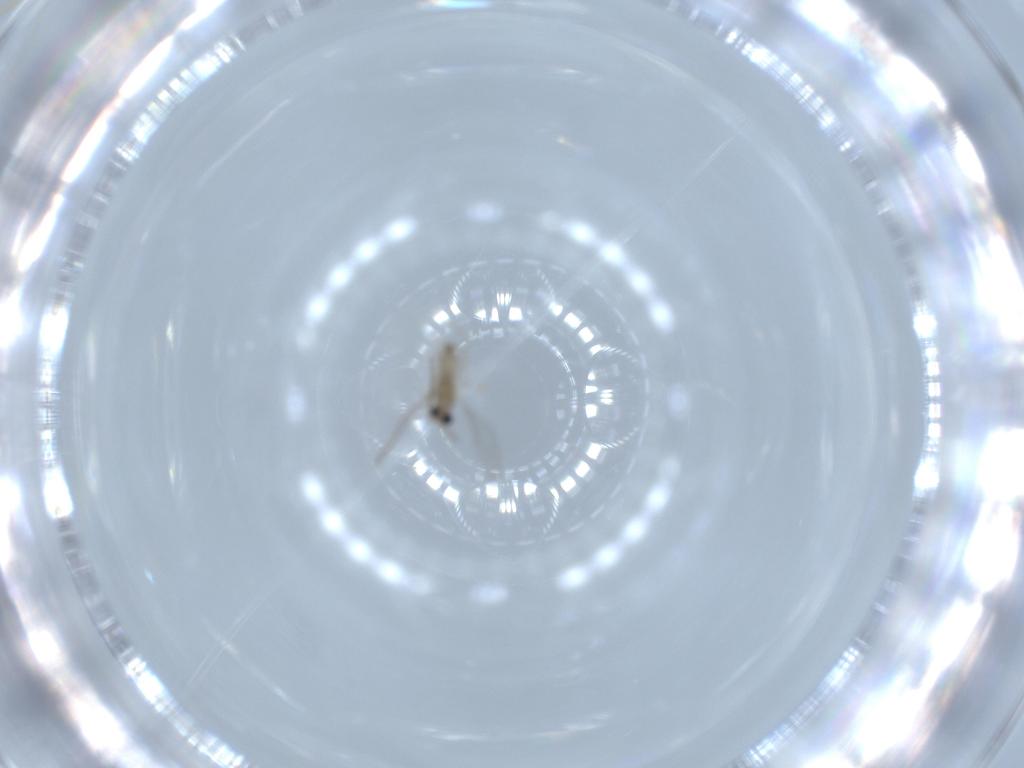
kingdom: Animalia
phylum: Arthropoda
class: Insecta
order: Diptera
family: Cecidomyiidae
